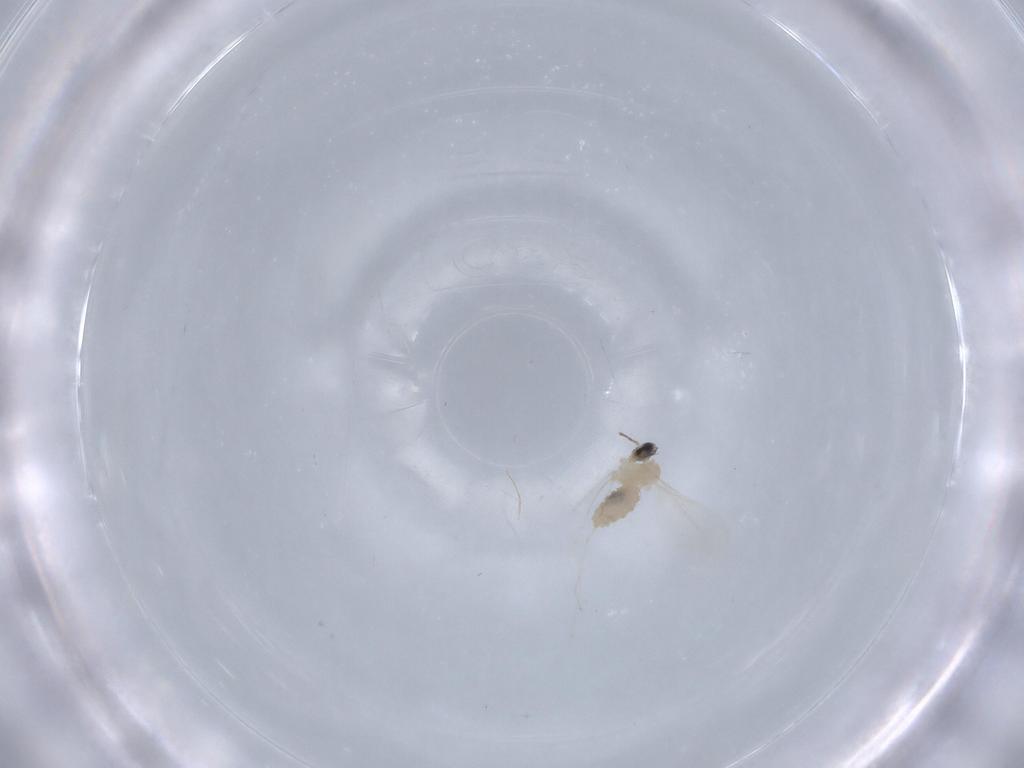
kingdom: Animalia
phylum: Arthropoda
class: Insecta
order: Diptera
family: Cecidomyiidae
